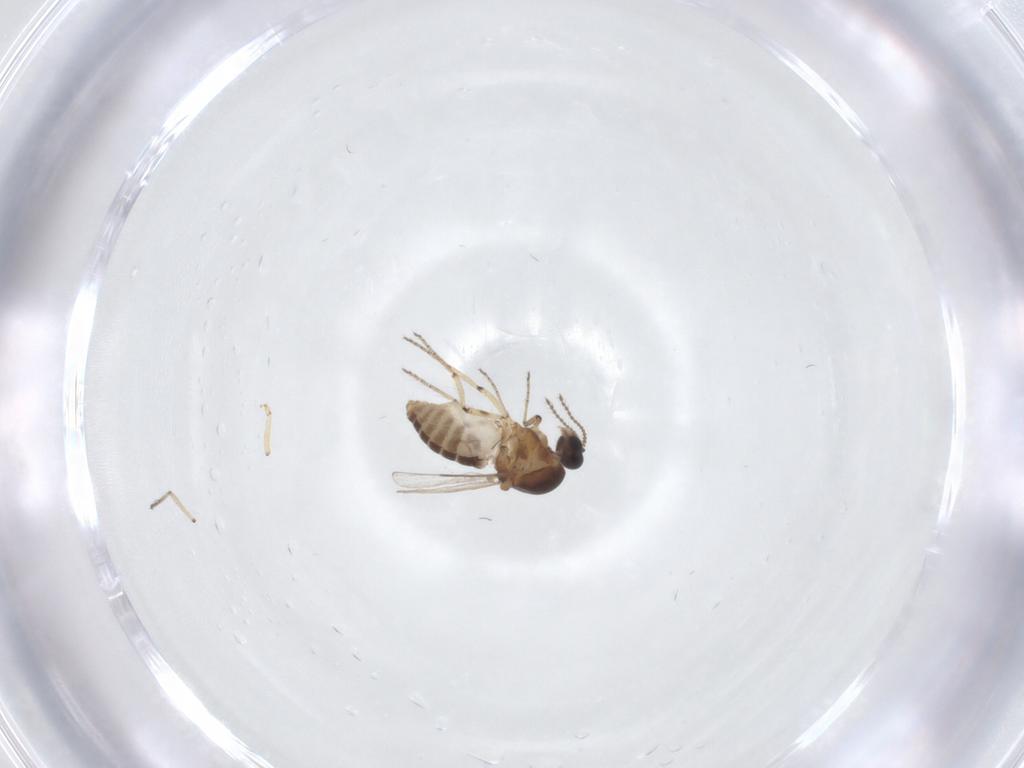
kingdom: Animalia
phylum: Arthropoda
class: Insecta
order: Diptera
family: Ceratopogonidae
